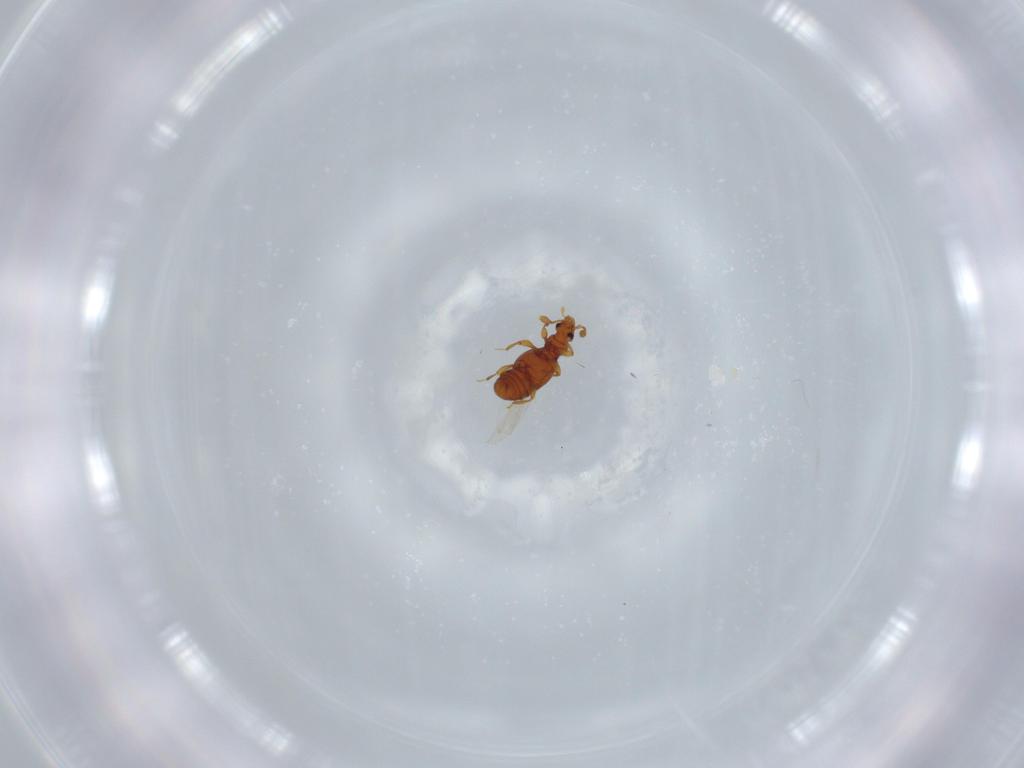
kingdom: Animalia
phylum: Arthropoda
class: Insecta
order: Coleoptera
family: Staphylinidae
